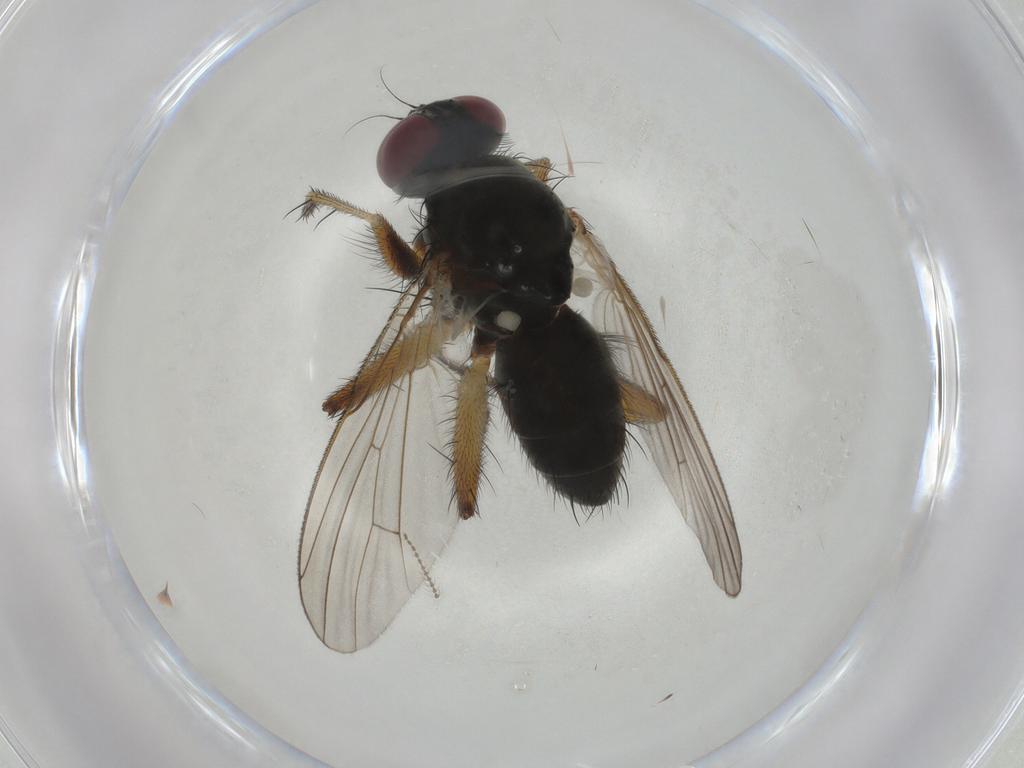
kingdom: Animalia
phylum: Arthropoda
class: Insecta
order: Diptera
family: Muscidae
